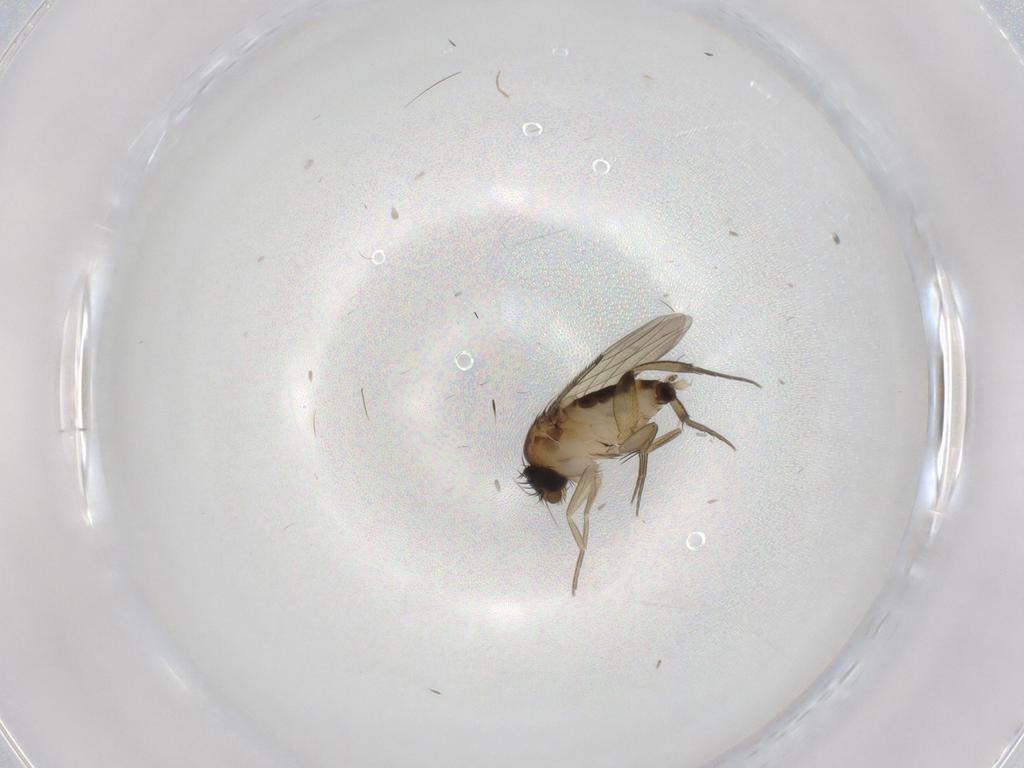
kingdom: Animalia
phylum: Arthropoda
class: Insecta
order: Diptera
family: Phoridae
